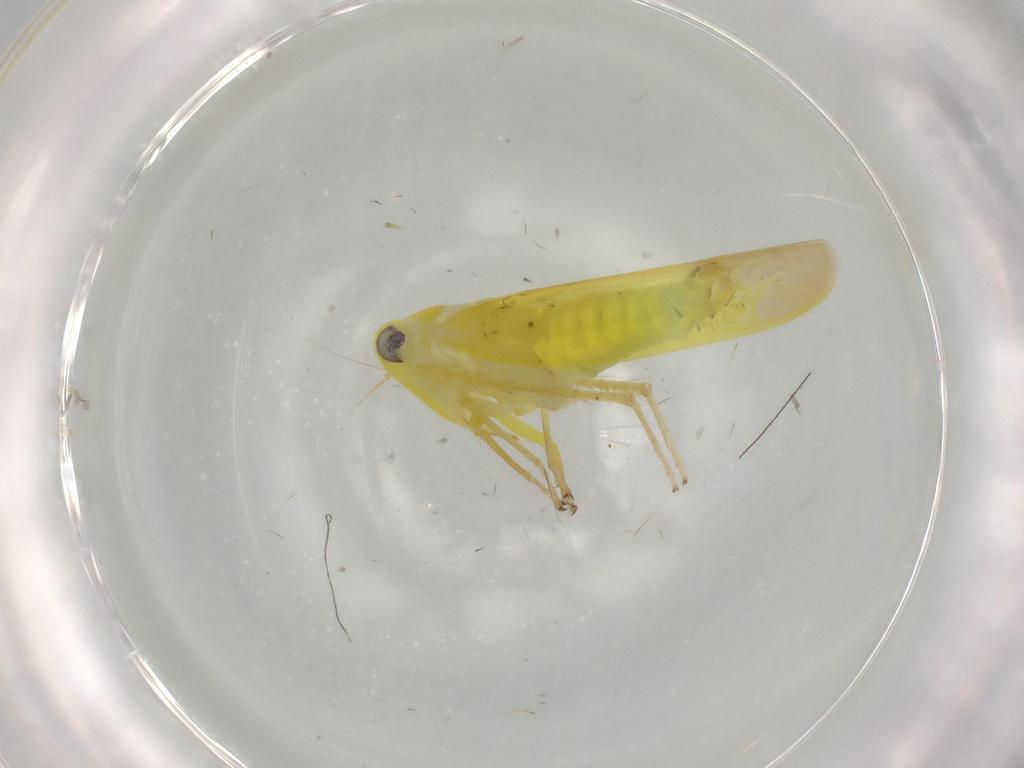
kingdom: Animalia
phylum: Arthropoda
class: Insecta
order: Hemiptera
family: Cicadellidae
